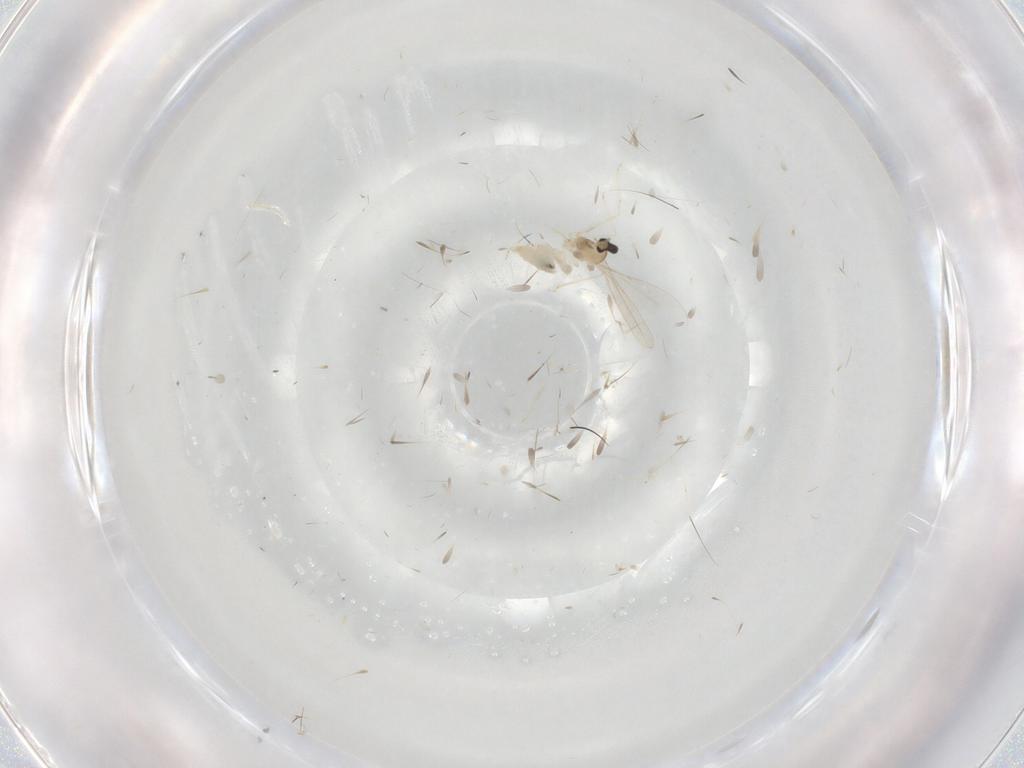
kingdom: Animalia
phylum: Arthropoda
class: Insecta
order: Diptera
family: Cecidomyiidae
